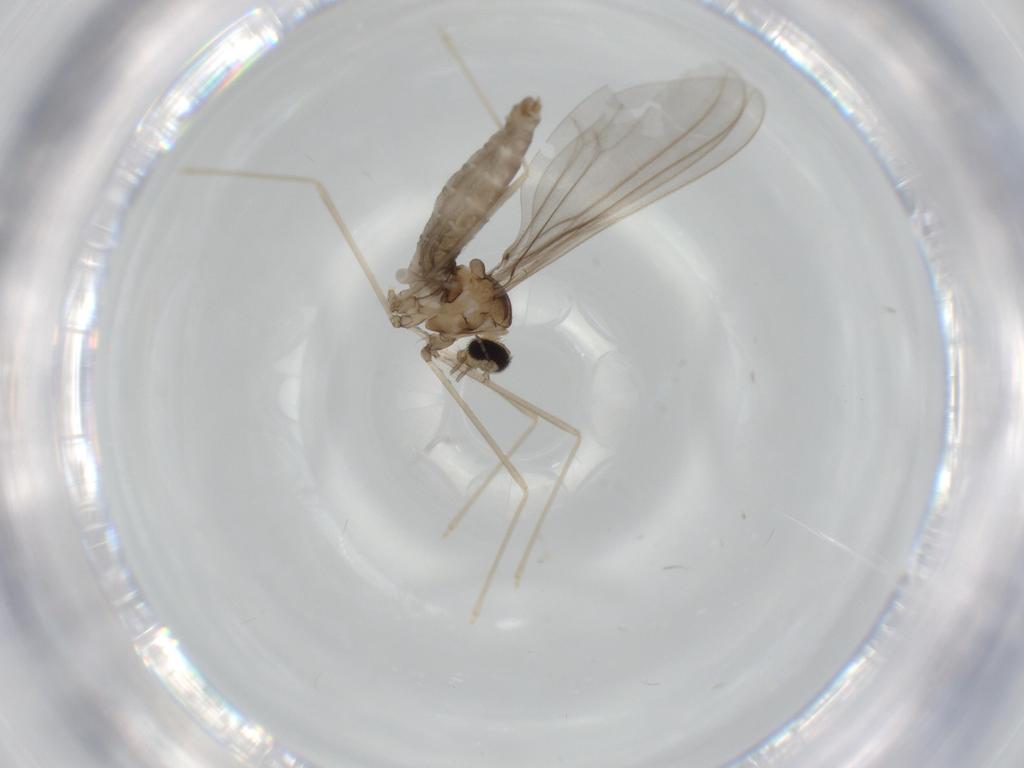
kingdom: Animalia
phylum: Arthropoda
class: Insecta
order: Diptera
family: Cecidomyiidae
